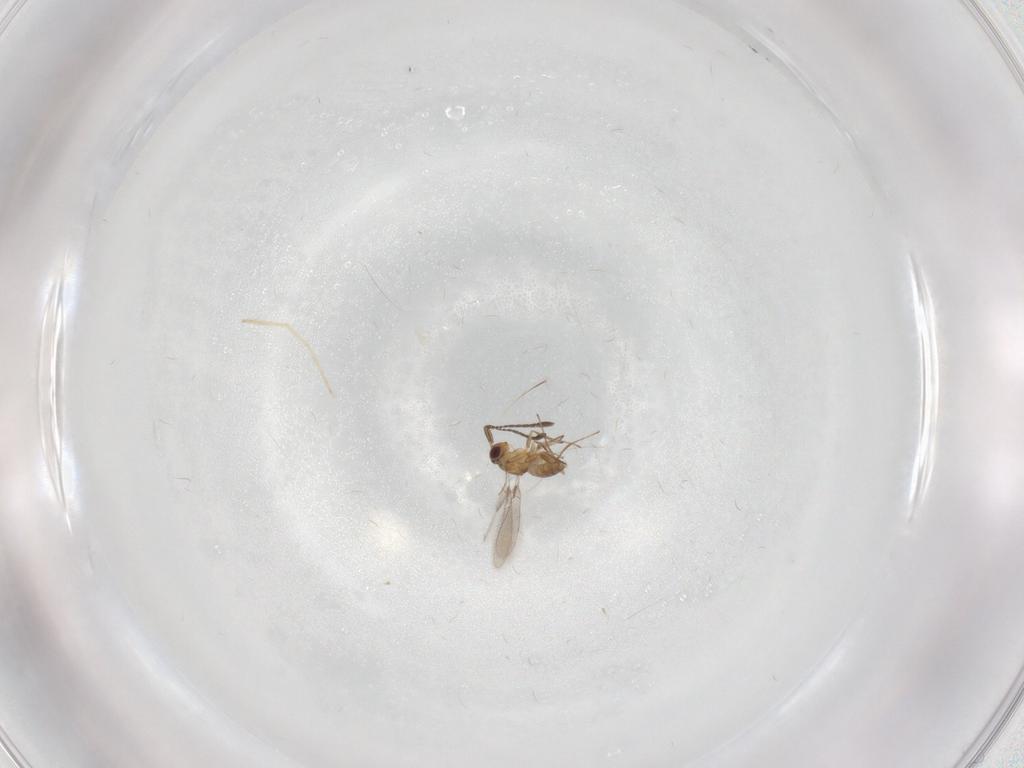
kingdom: Animalia
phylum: Arthropoda
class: Insecta
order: Hymenoptera
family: Mymaridae
